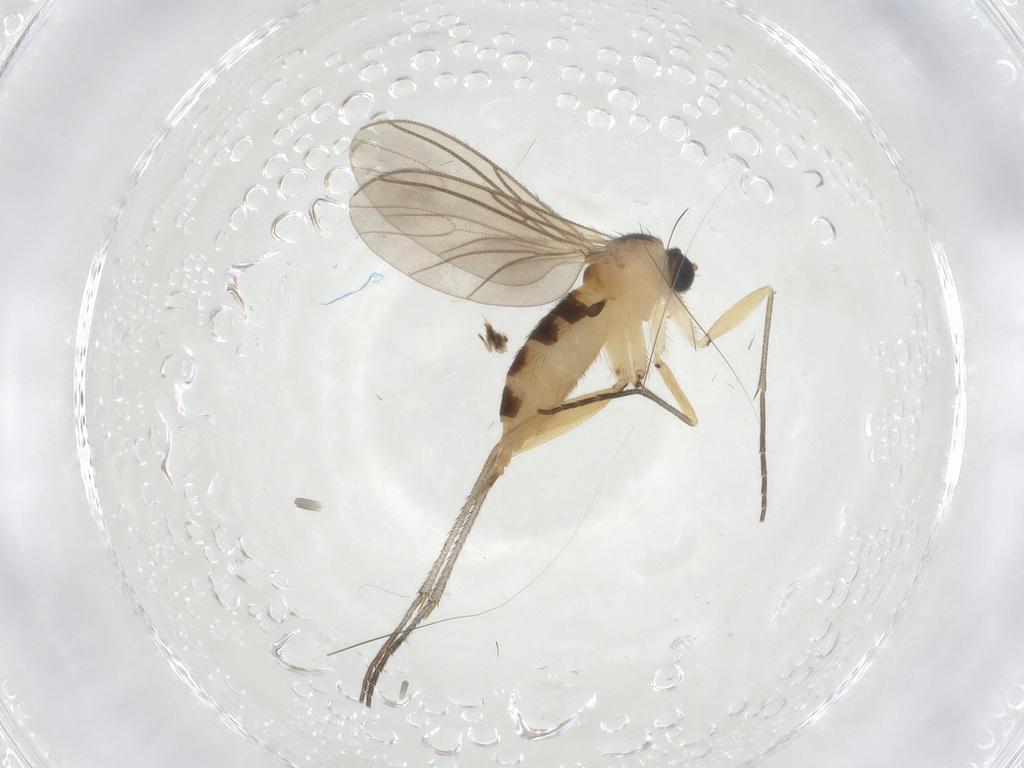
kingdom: Animalia
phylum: Arthropoda
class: Insecta
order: Diptera
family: Sciaridae
